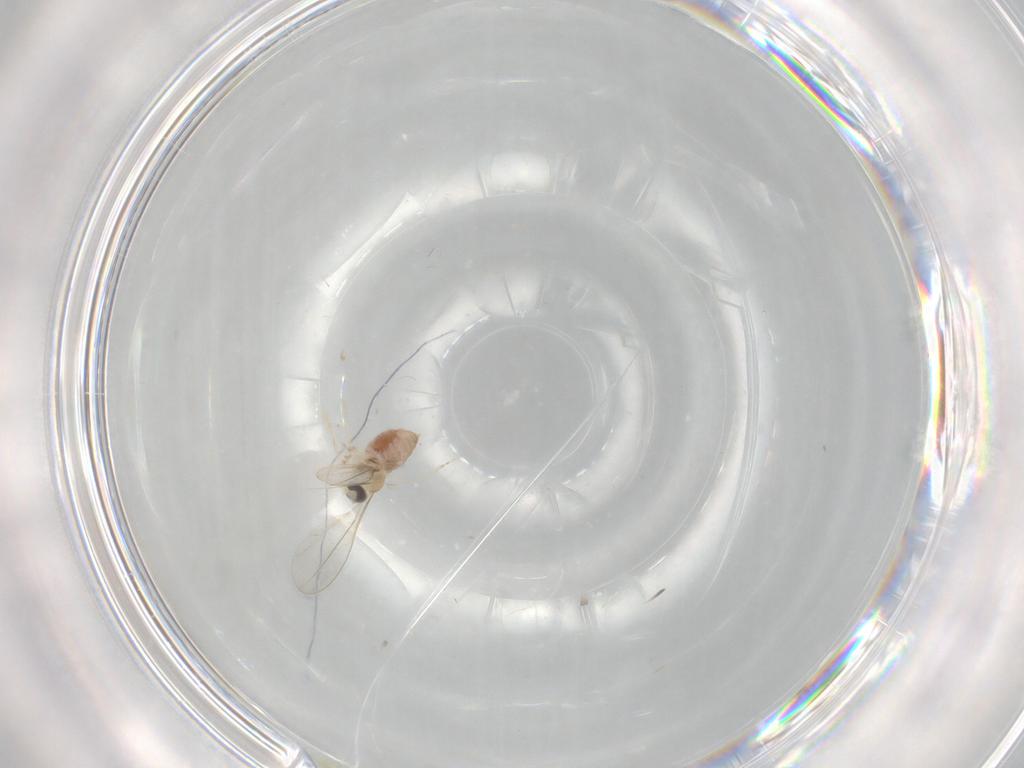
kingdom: Animalia
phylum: Arthropoda
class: Insecta
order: Diptera
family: Cecidomyiidae
